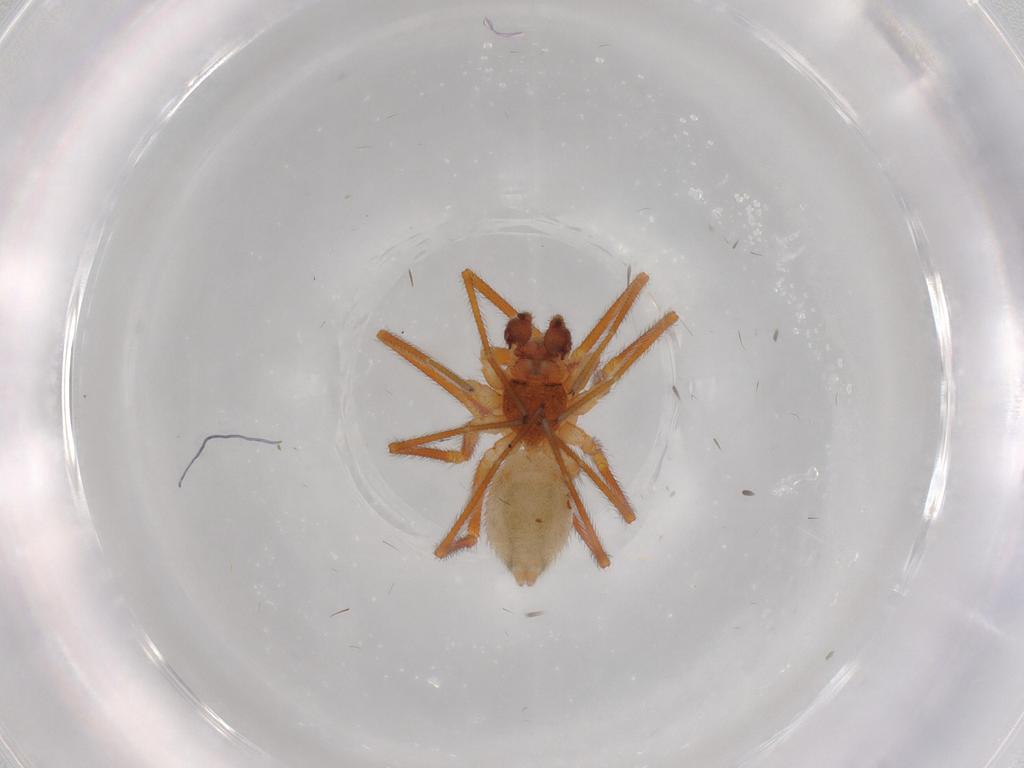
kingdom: Animalia
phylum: Arthropoda
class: Arachnida
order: Araneae
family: Linyphiidae
